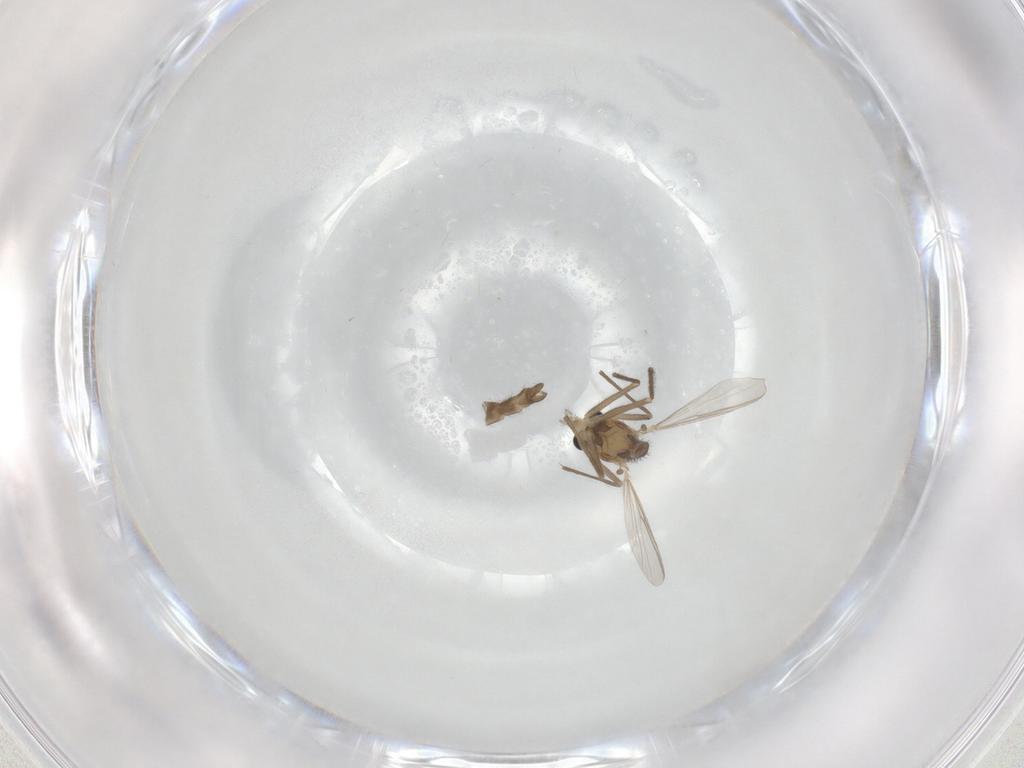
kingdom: Animalia
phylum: Arthropoda
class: Insecta
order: Diptera
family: Chironomidae
